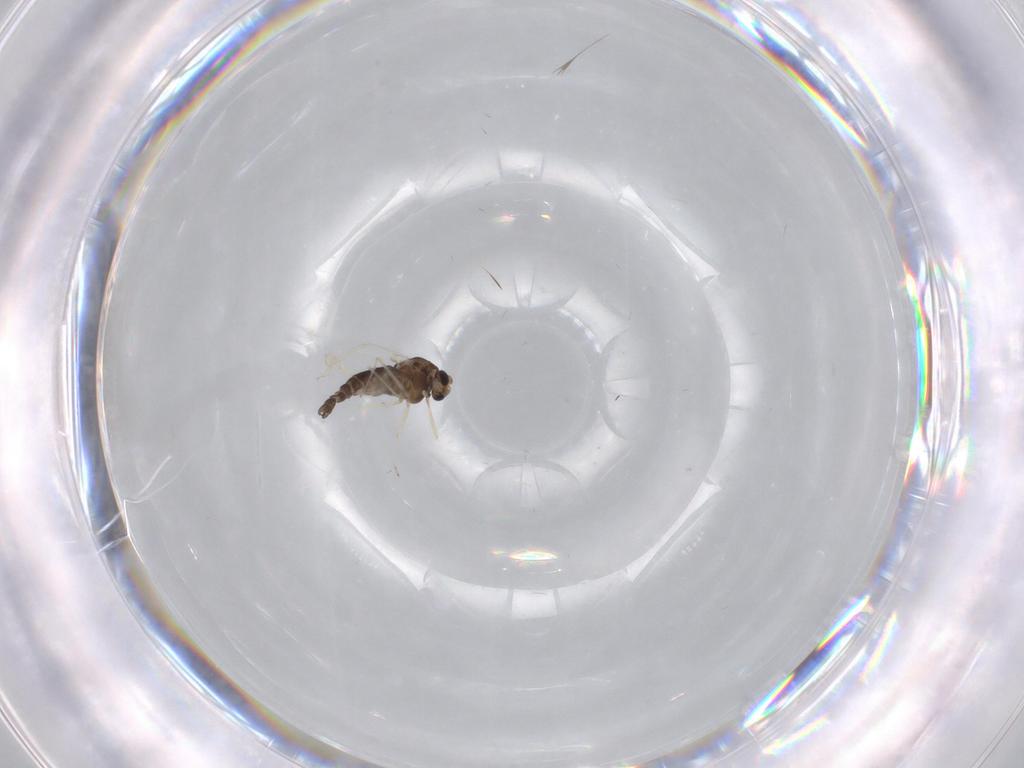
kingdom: Animalia
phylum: Arthropoda
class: Insecta
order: Diptera
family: Chironomidae
